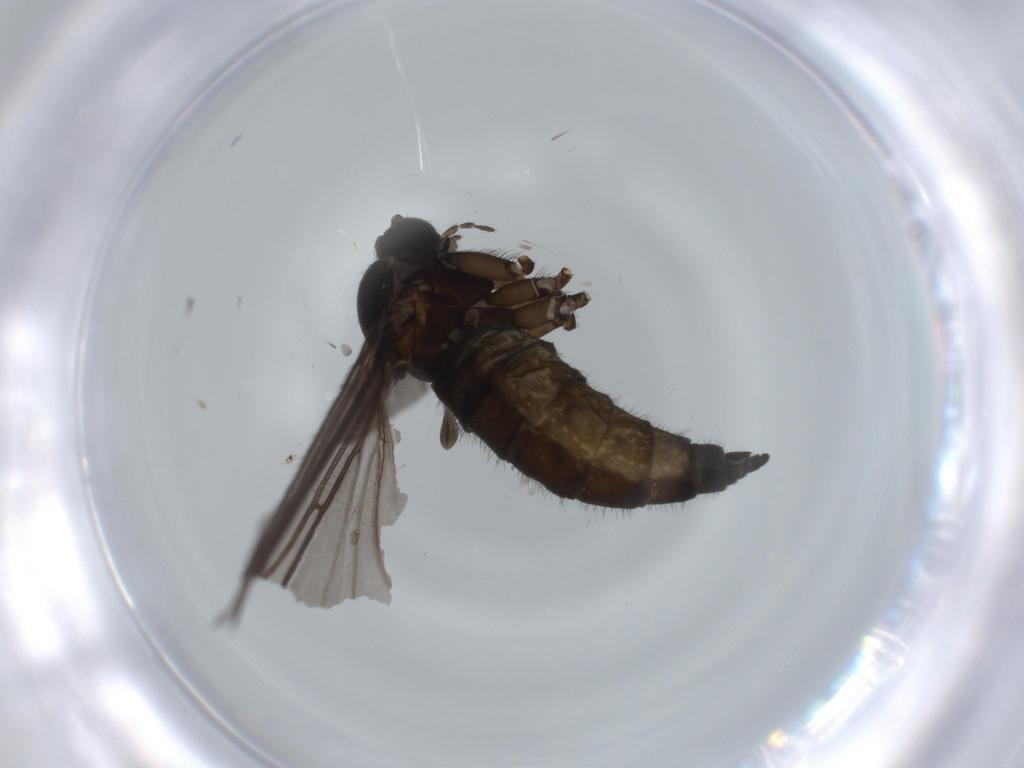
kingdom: Animalia
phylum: Arthropoda
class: Insecta
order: Diptera
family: Sciaridae
